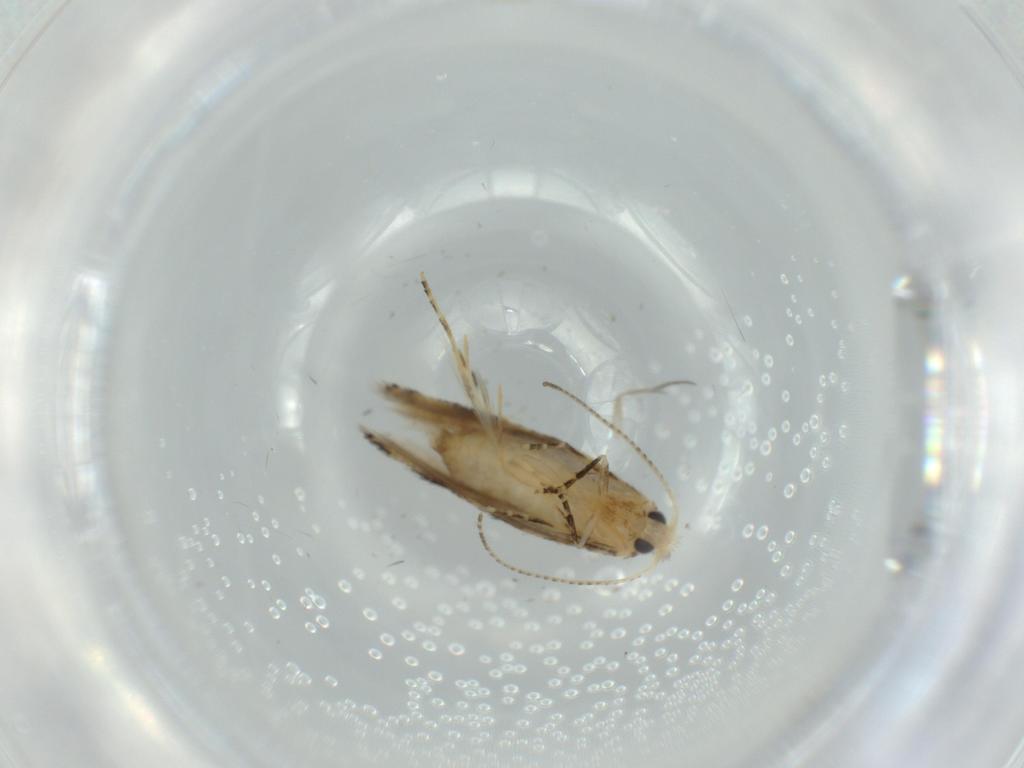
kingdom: Animalia
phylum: Arthropoda
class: Insecta
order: Lepidoptera
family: Bucculatricidae
